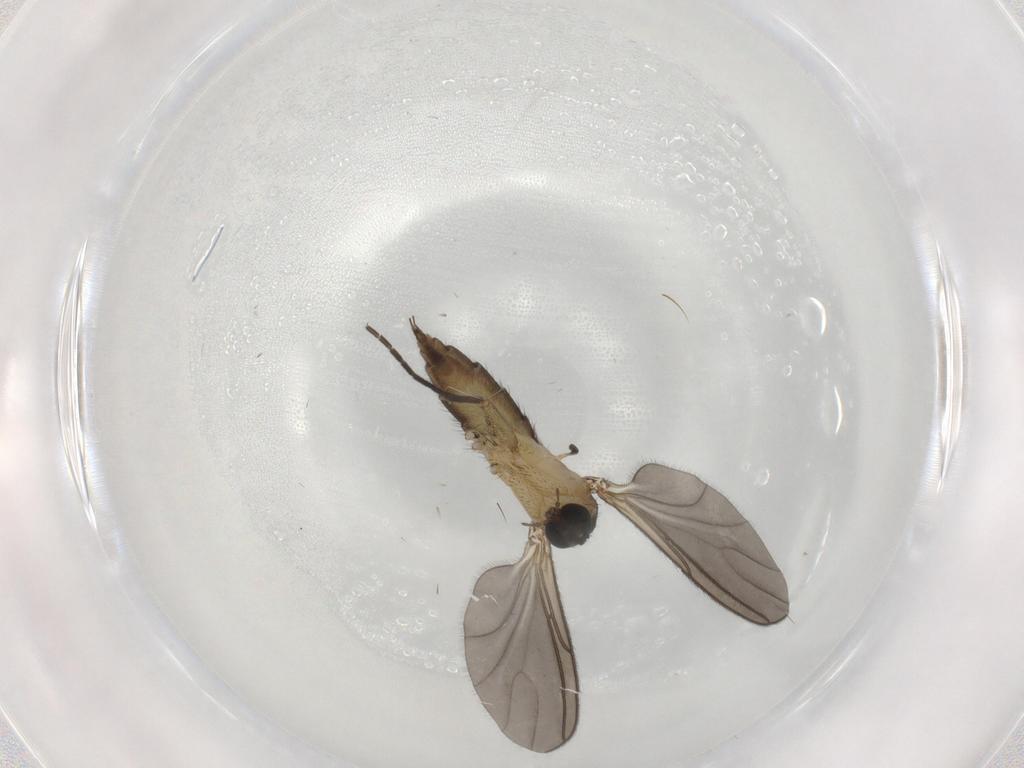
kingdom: Animalia
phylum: Arthropoda
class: Insecta
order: Diptera
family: Sciaridae
